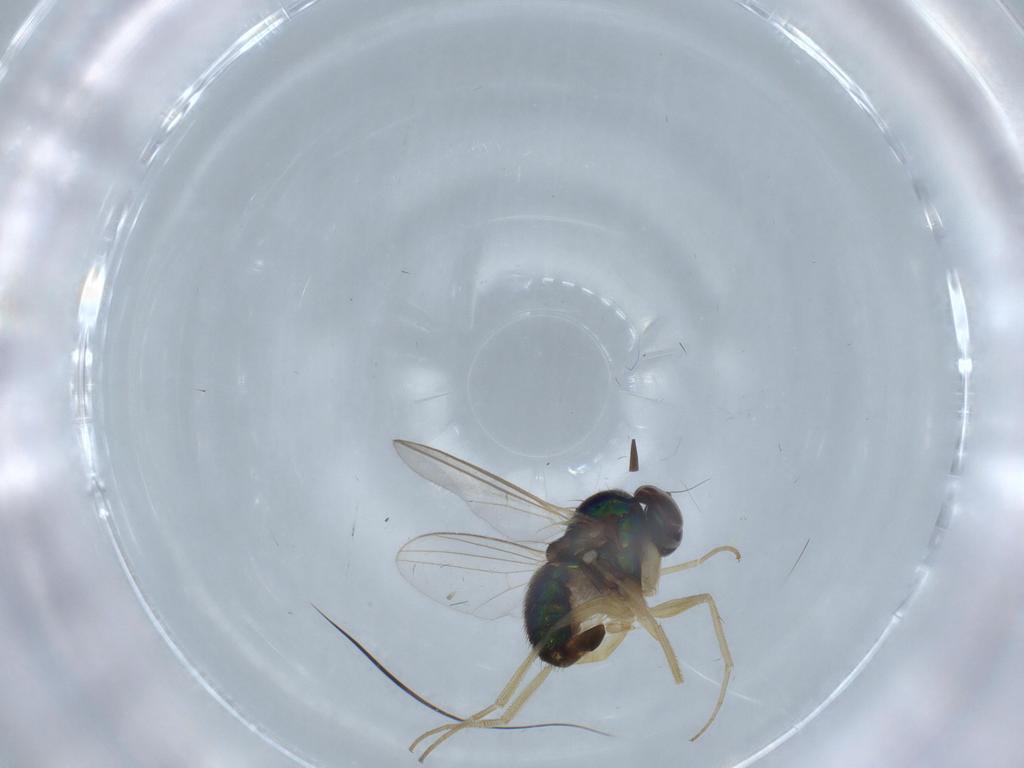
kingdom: Animalia
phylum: Arthropoda
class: Insecta
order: Diptera
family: Dolichopodidae
